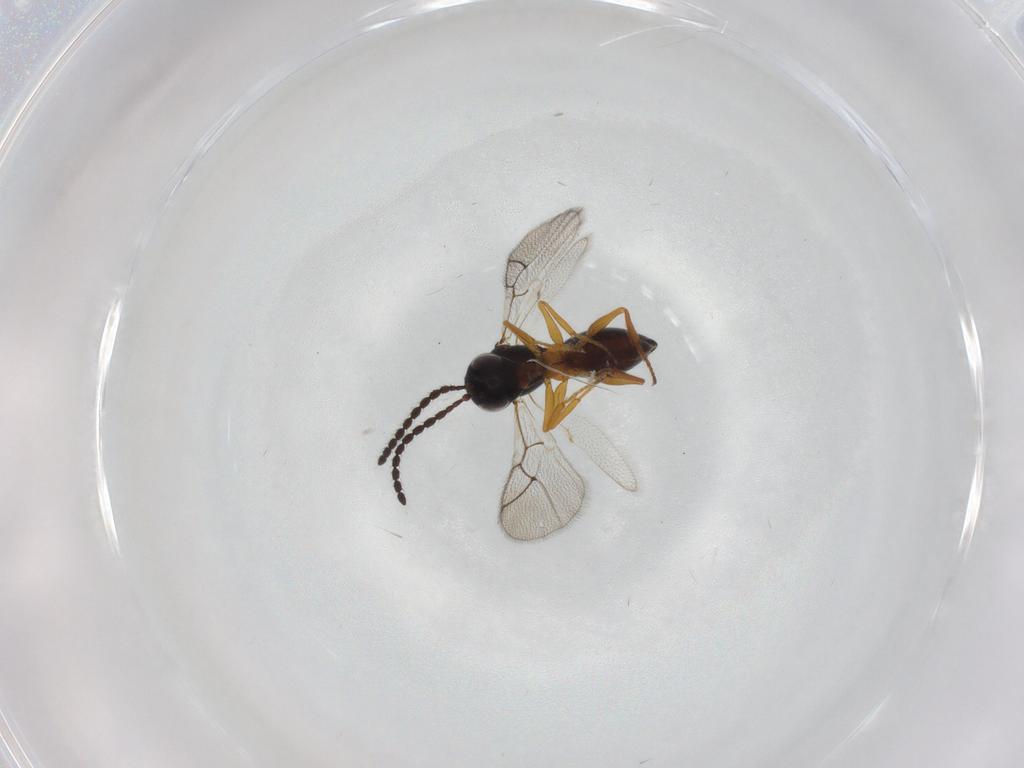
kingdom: Animalia
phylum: Arthropoda
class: Insecta
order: Hymenoptera
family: Figitidae
